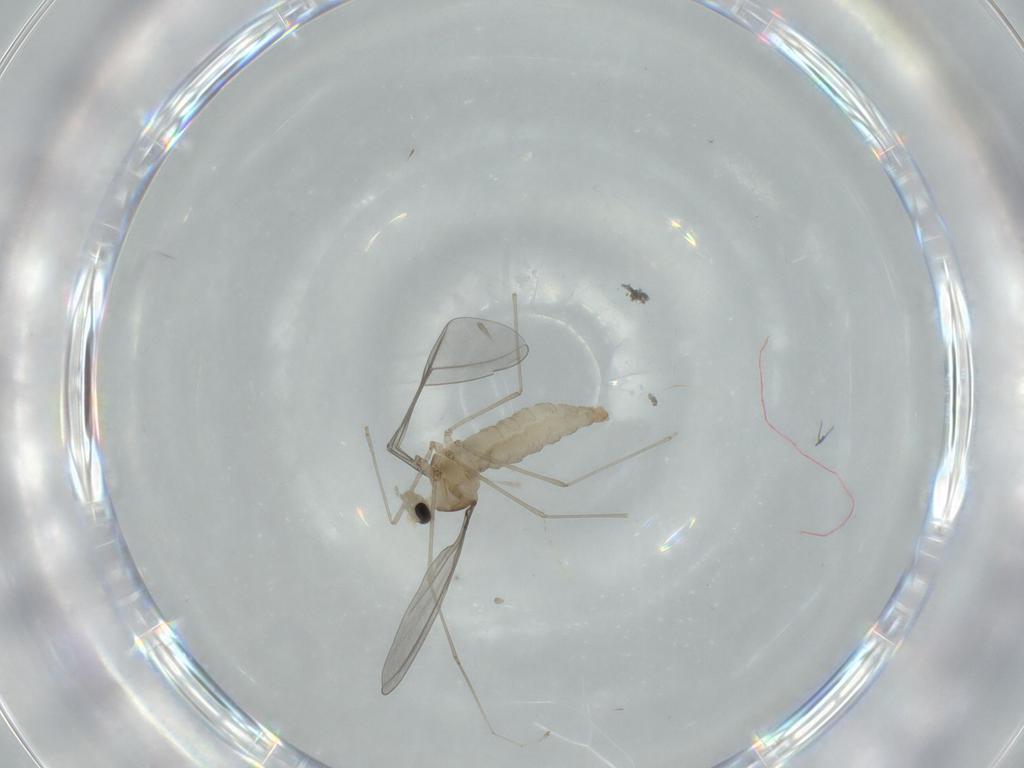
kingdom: Animalia
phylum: Arthropoda
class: Insecta
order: Diptera
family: Cecidomyiidae
